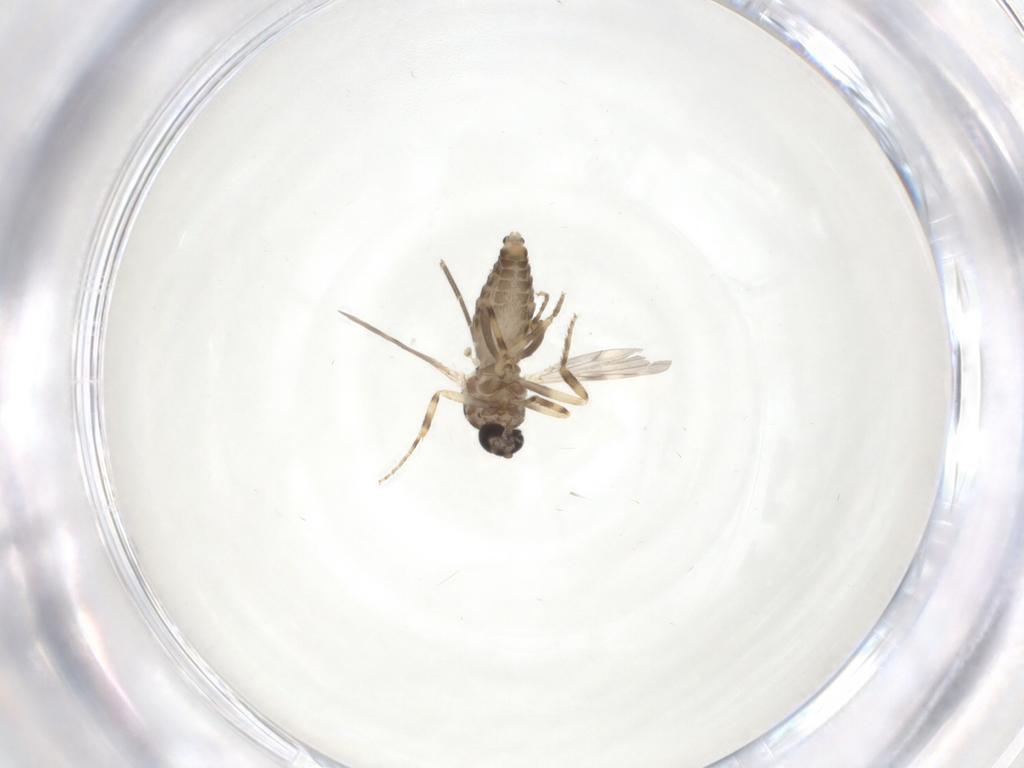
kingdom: Animalia
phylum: Arthropoda
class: Insecta
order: Diptera
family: Ceratopogonidae
